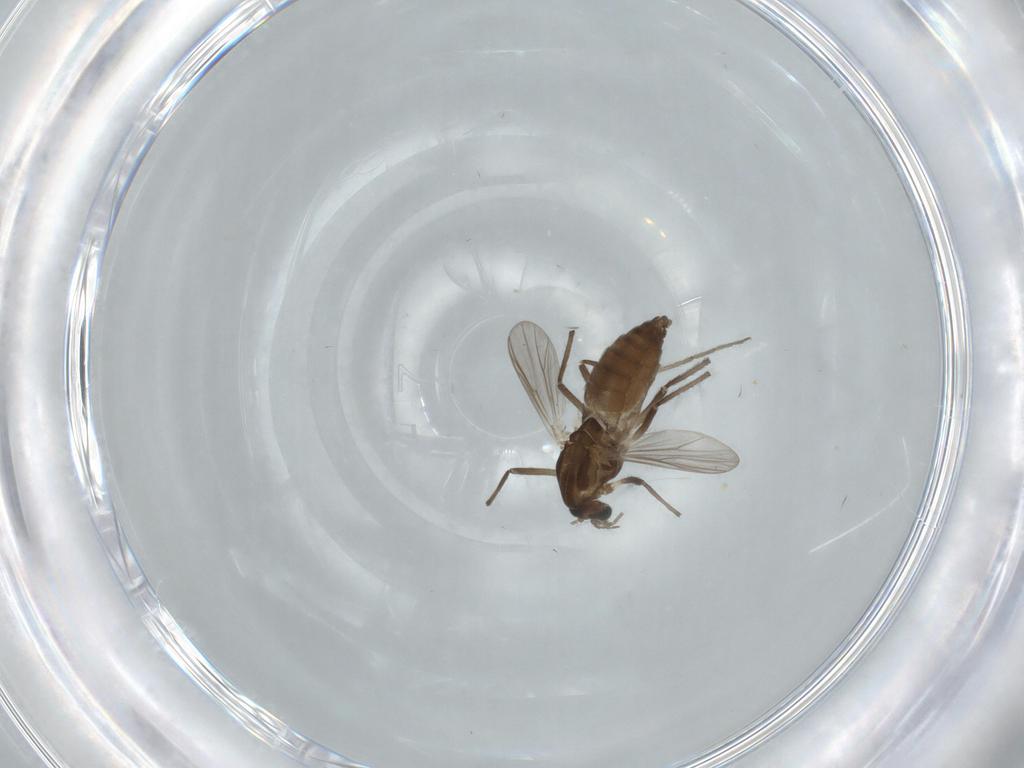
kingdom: Animalia
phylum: Arthropoda
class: Insecta
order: Diptera
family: Chironomidae
